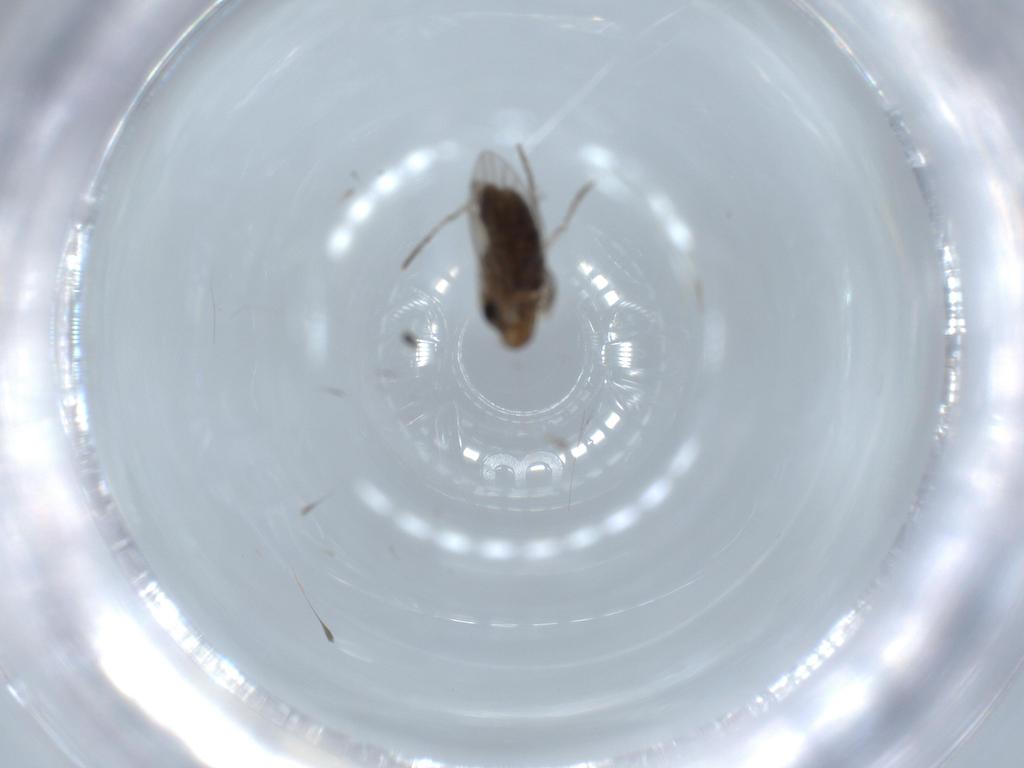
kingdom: Animalia
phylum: Arthropoda
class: Insecta
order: Diptera
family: Psychodidae
